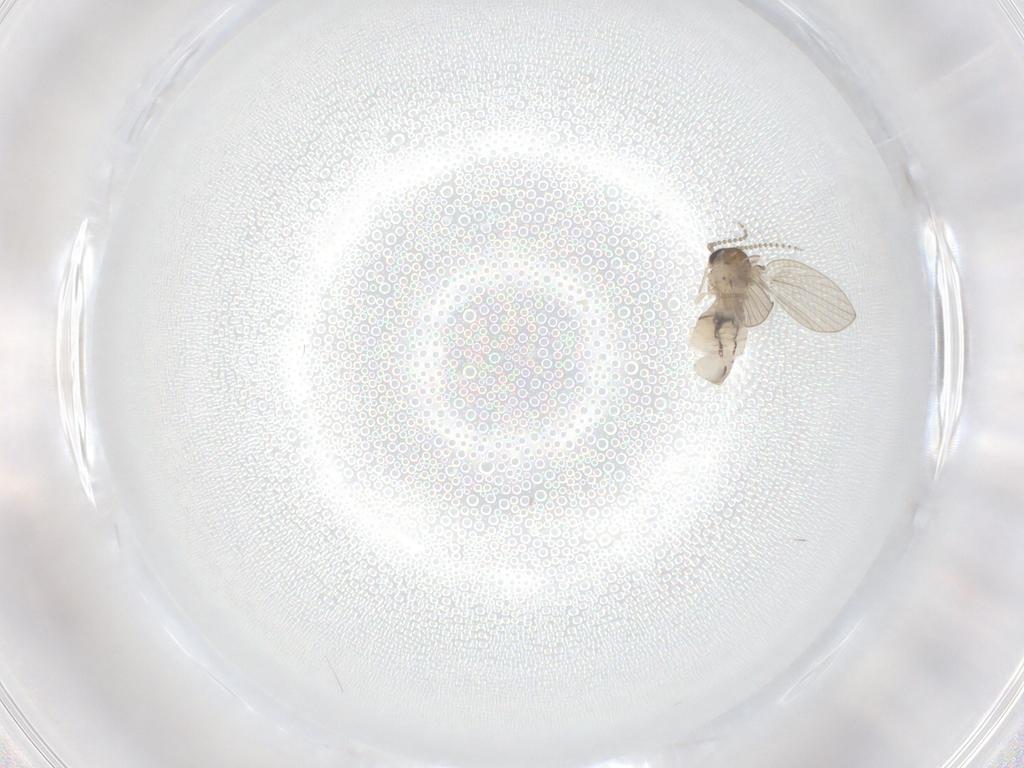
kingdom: Animalia
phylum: Arthropoda
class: Insecta
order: Diptera
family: Psychodidae
